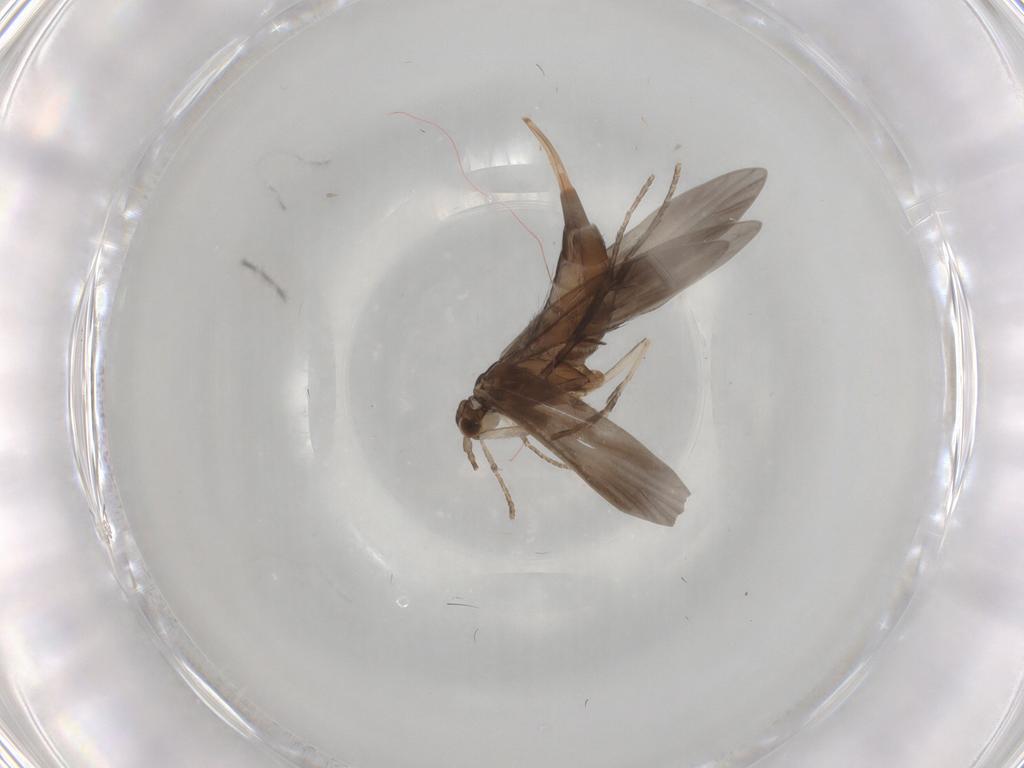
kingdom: Animalia
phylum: Arthropoda
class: Insecta
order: Trichoptera
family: Xiphocentronidae
